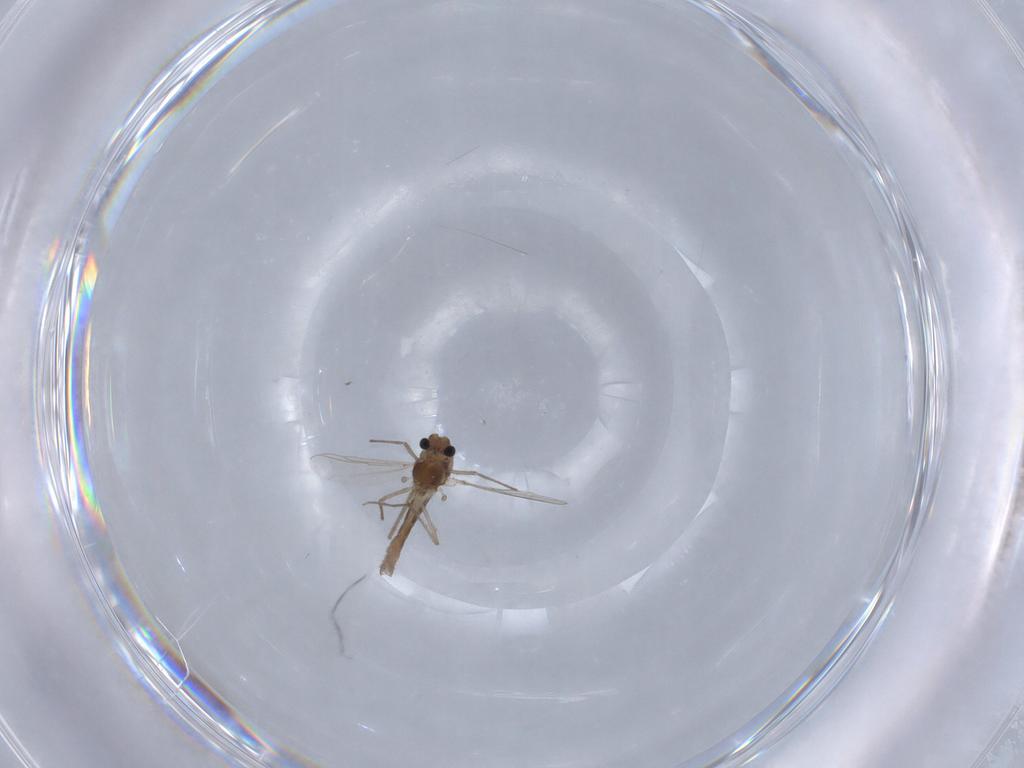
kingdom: Animalia
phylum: Arthropoda
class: Insecta
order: Diptera
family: Chironomidae
